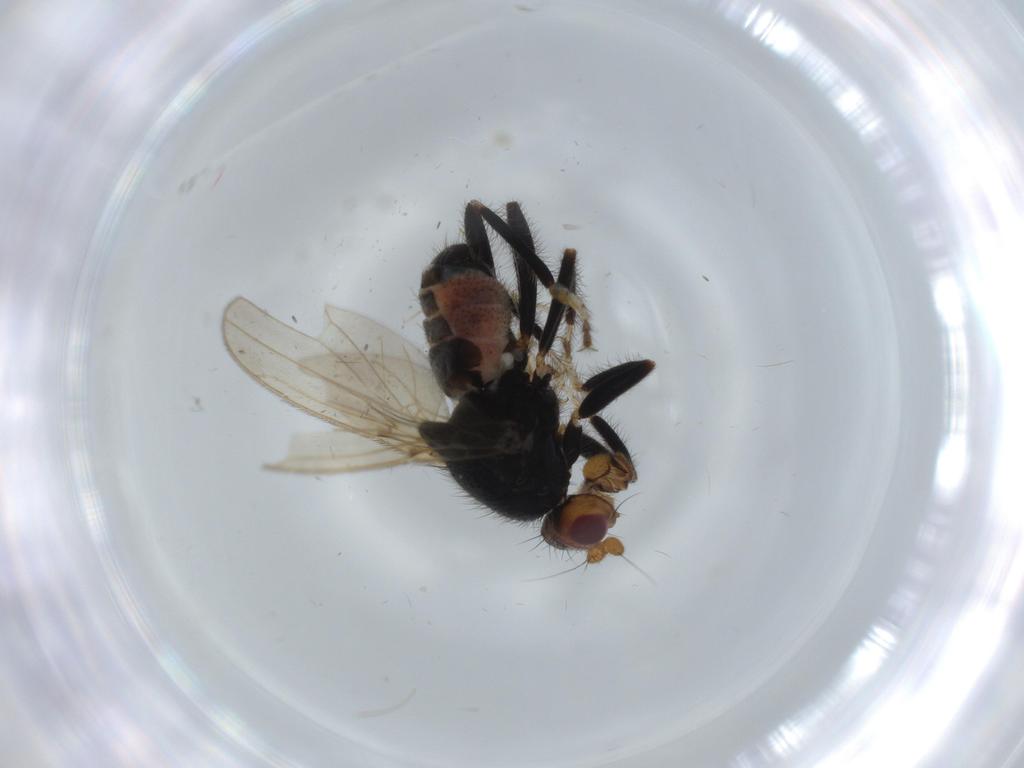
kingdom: Animalia
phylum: Arthropoda
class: Insecta
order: Diptera
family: Sphaeroceridae
